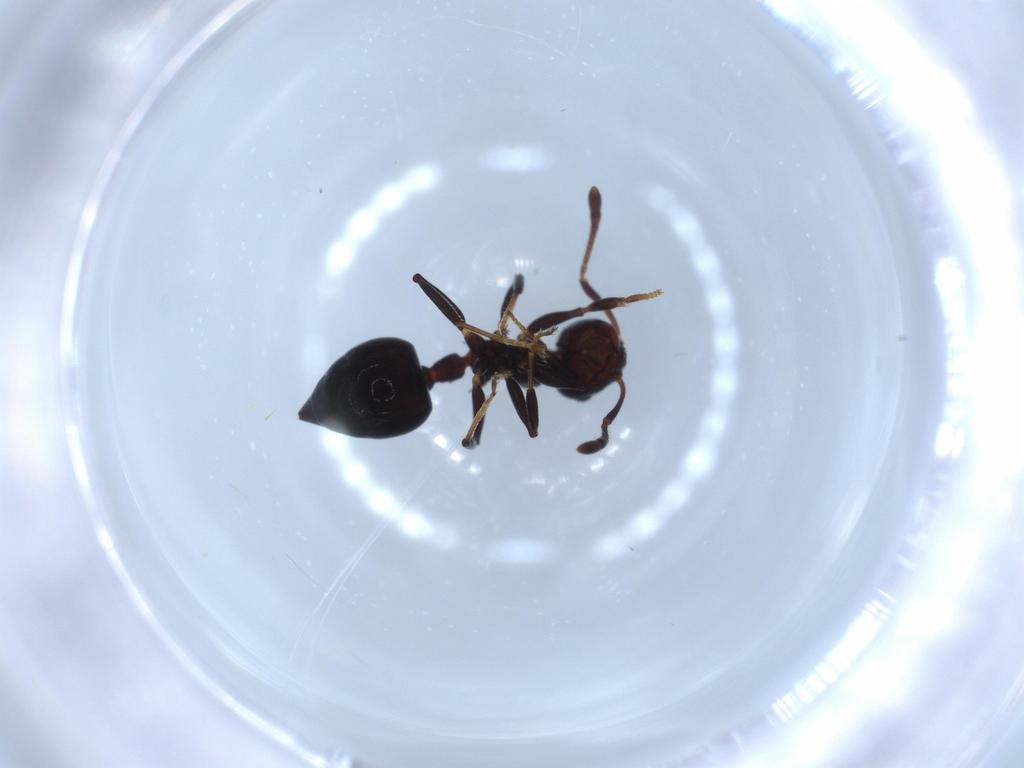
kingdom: Animalia
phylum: Arthropoda
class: Insecta
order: Hymenoptera
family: Formicidae
